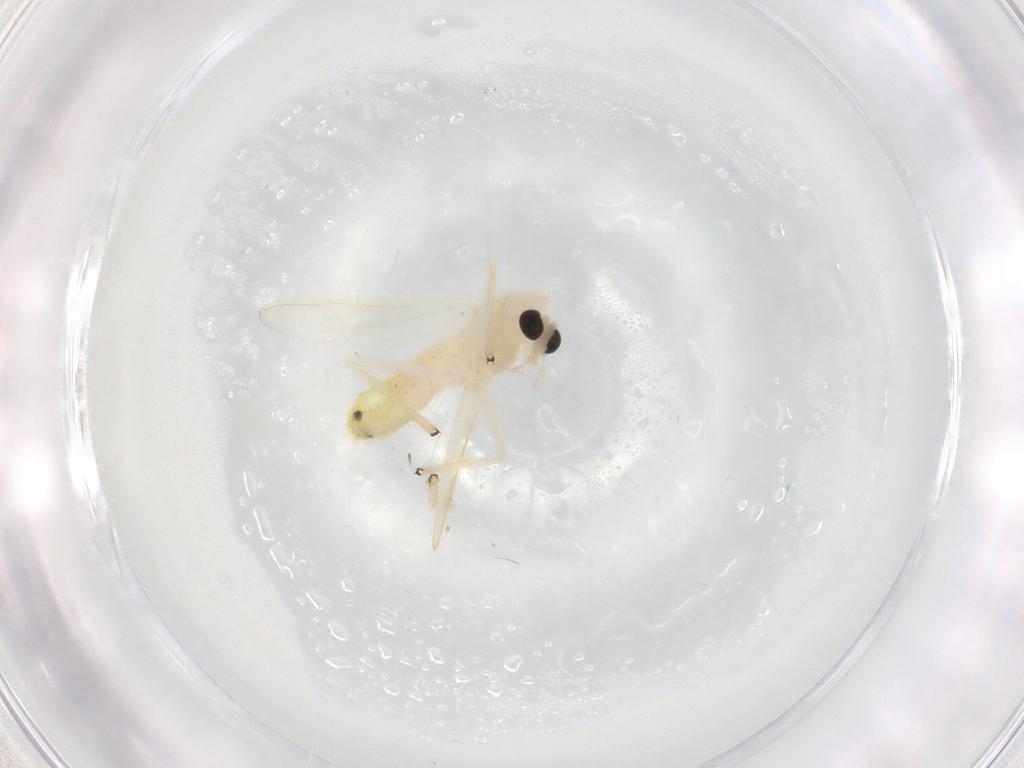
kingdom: Animalia
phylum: Arthropoda
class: Insecta
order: Diptera
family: Chironomidae
